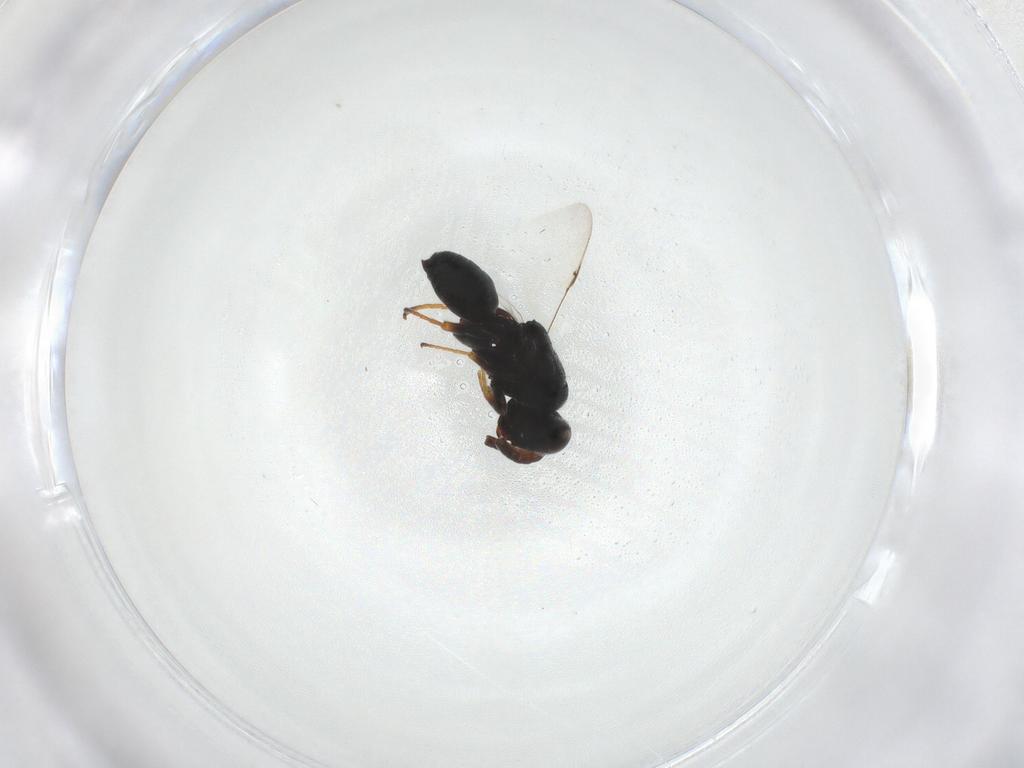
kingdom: Animalia
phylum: Arthropoda
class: Insecta
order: Hymenoptera
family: Chalcididae
